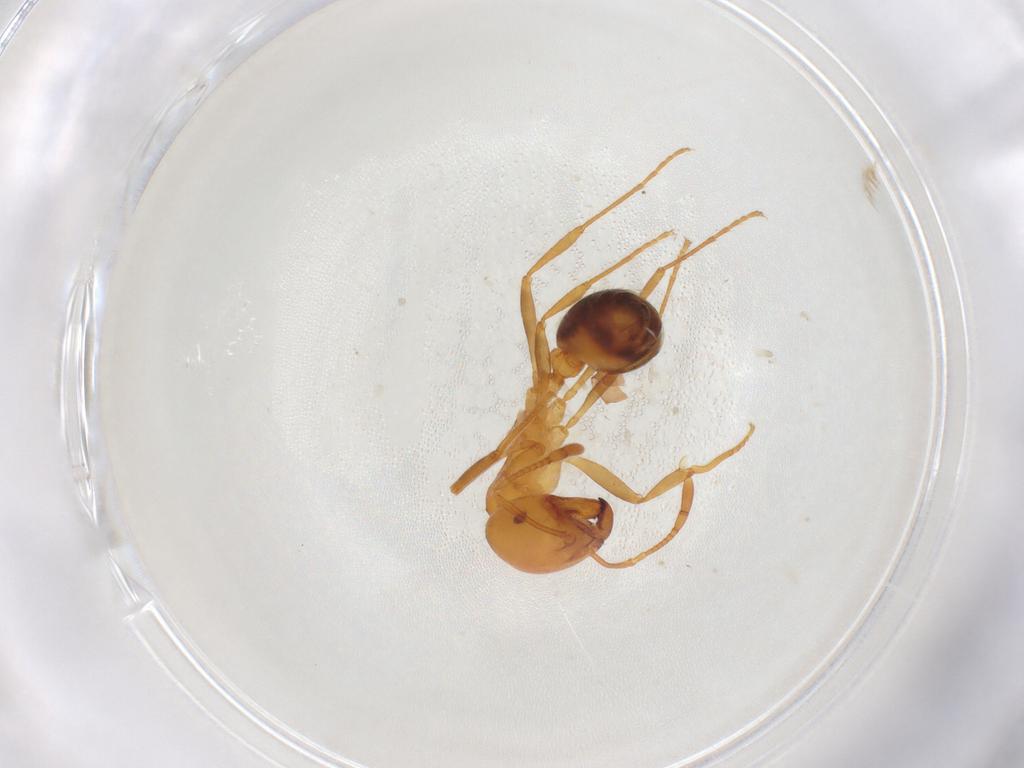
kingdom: Animalia
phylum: Arthropoda
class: Insecta
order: Hymenoptera
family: Formicidae
